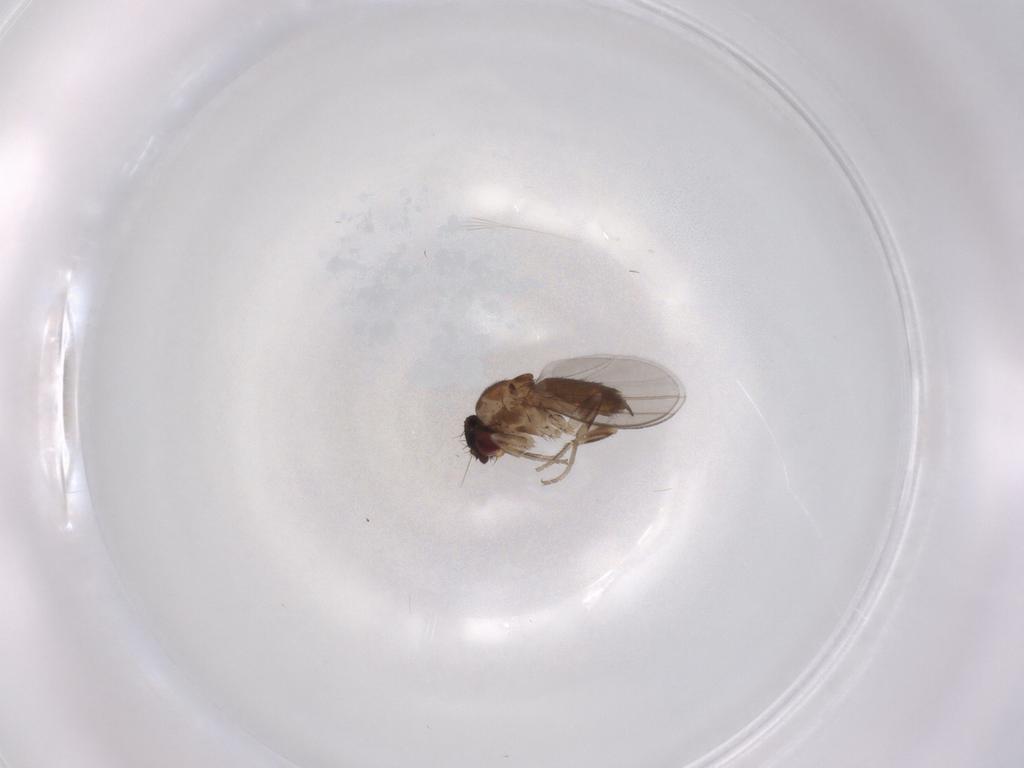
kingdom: Animalia
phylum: Arthropoda
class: Insecta
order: Diptera
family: Milichiidae
